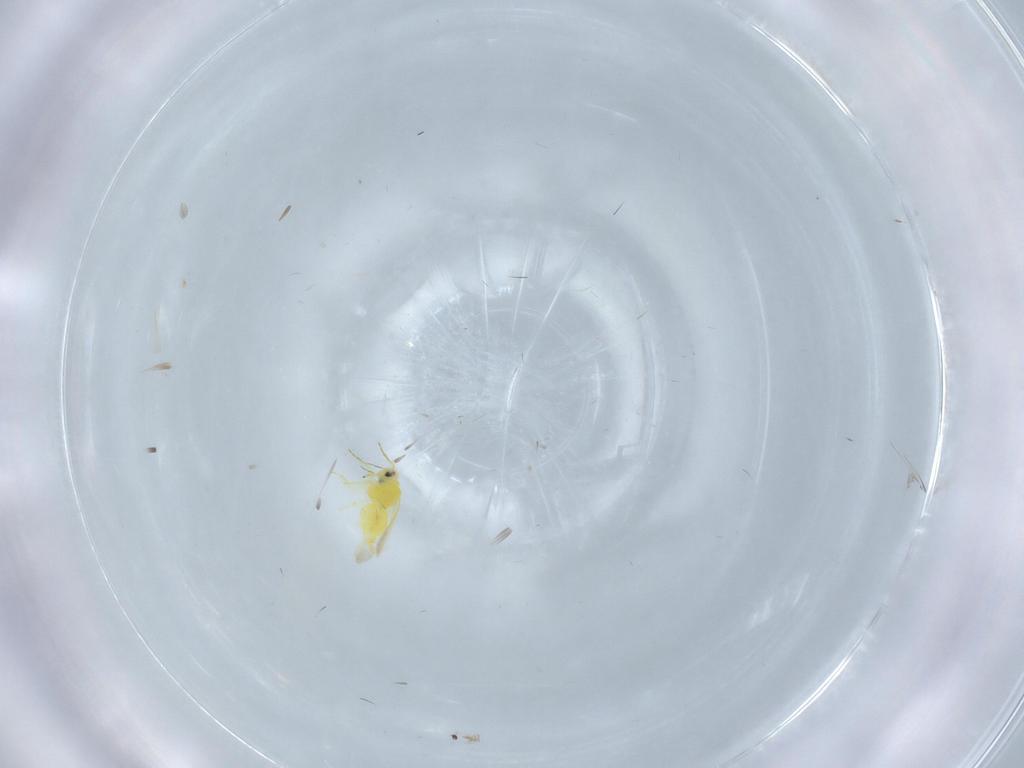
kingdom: Animalia
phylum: Arthropoda
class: Insecta
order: Hemiptera
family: Aleyrodidae
